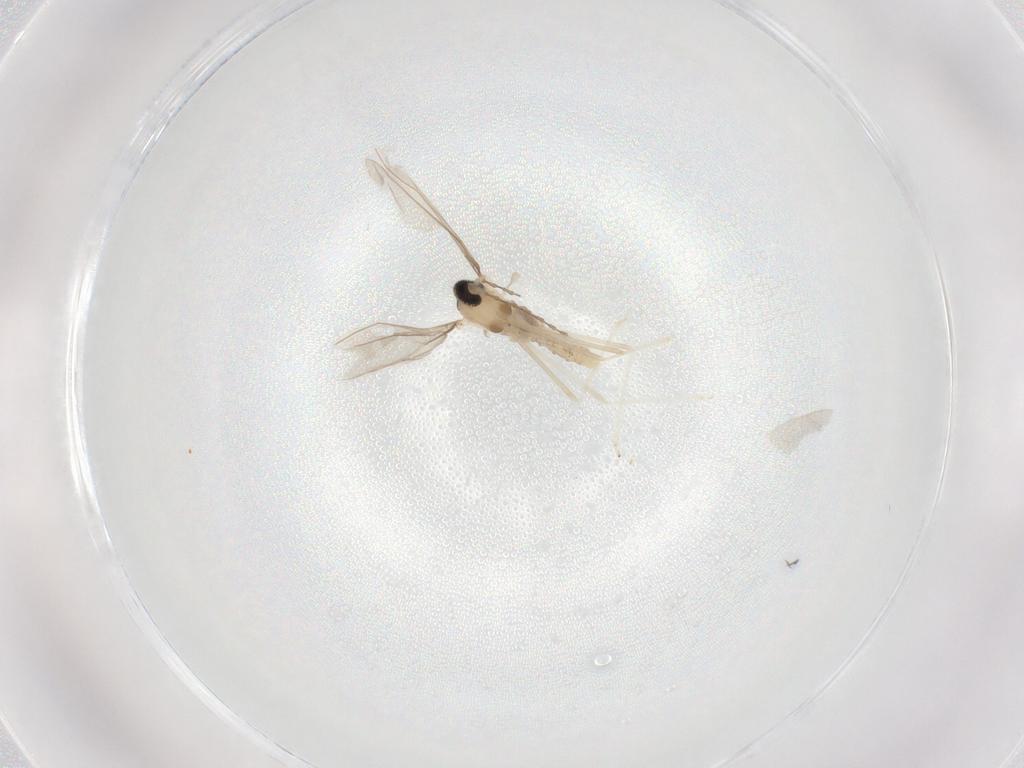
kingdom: Animalia
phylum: Arthropoda
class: Insecta
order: Diptera
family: Cecidomyiidae
